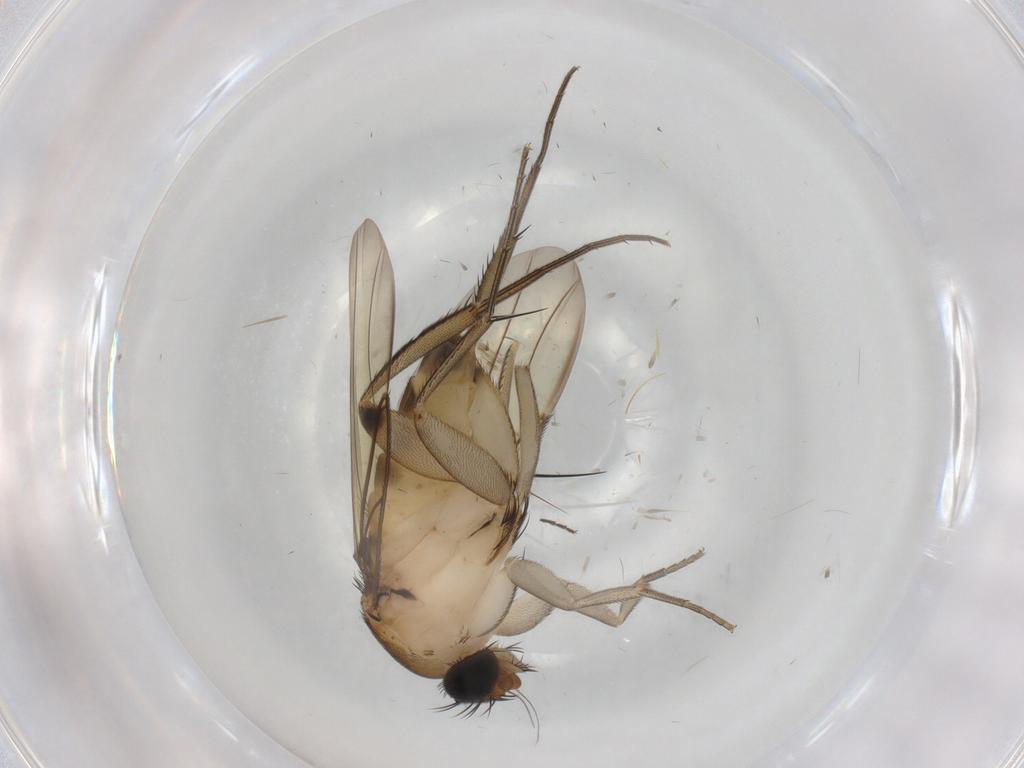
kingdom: Animalia
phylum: Arthropoda
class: Insecta
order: Diptera
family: Phoridae
